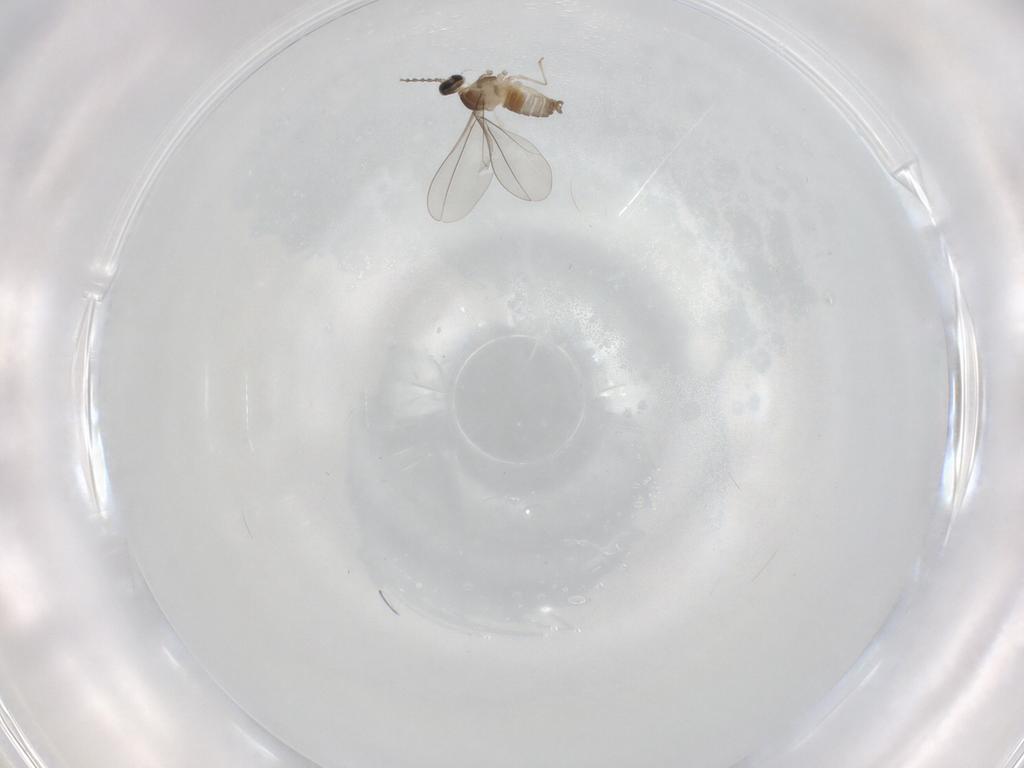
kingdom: Animalia
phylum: Arthropoda
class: Insecta
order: Diptera
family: Chironomidae
